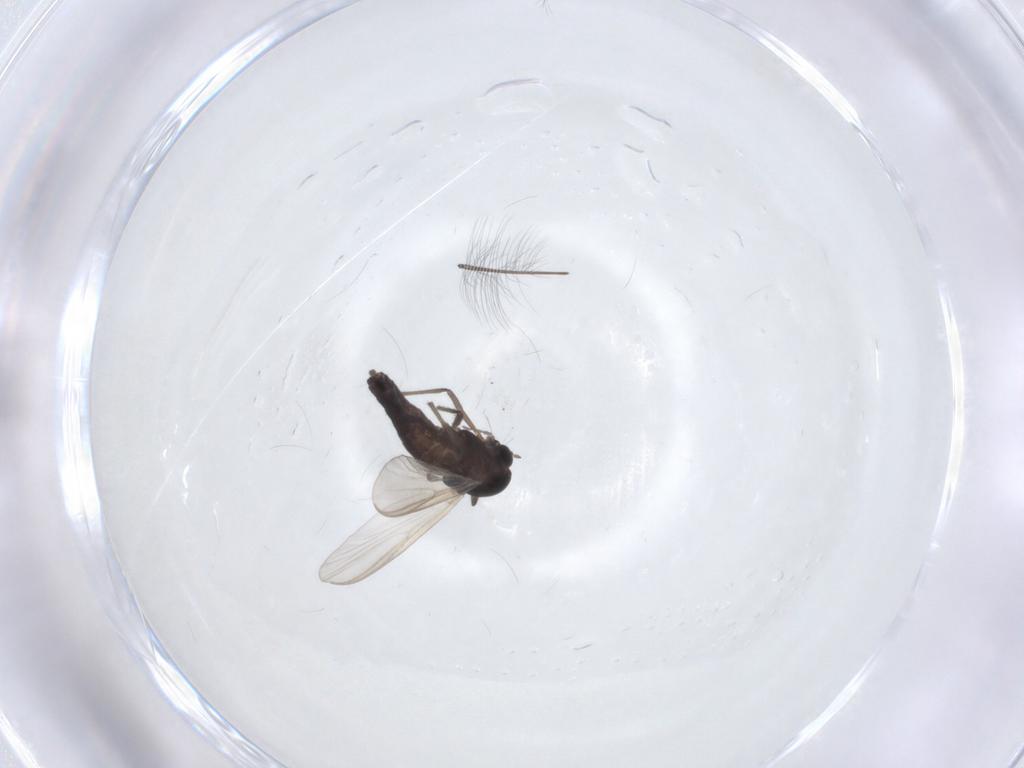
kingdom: Animalia
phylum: Arthropoda
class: Insecta
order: Diptera
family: Chironomidae
